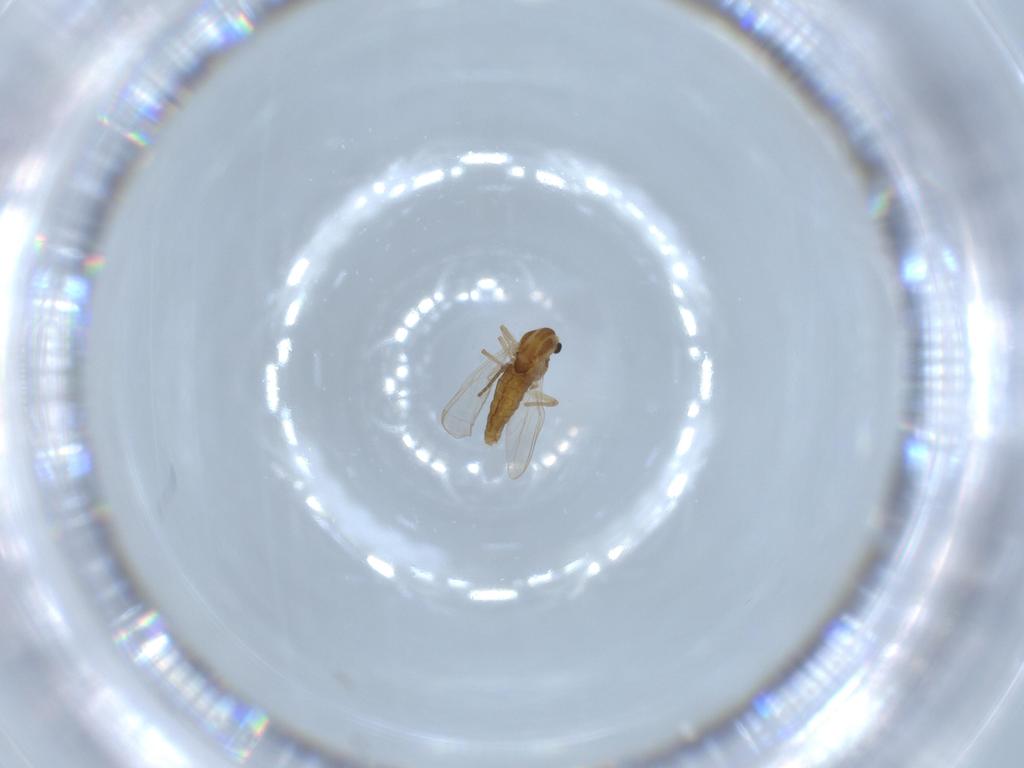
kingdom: Animalia
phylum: Arthropoda
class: Insecta
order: Diptera
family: Chironomidae
